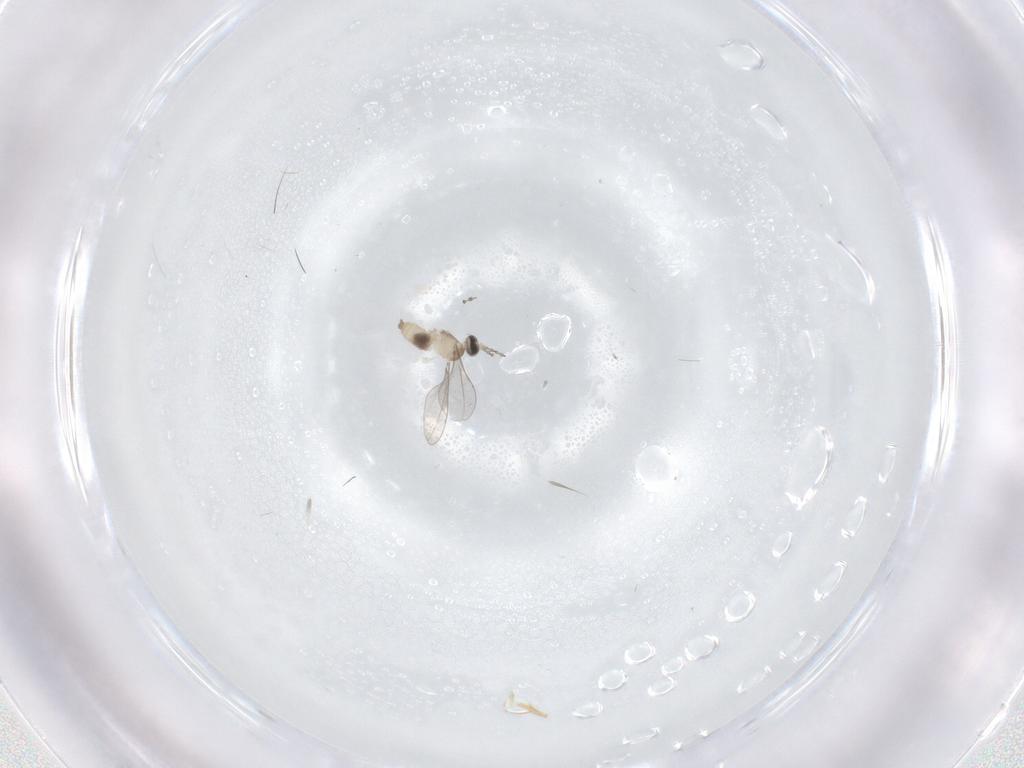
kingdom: Animalia
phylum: Arthropoda
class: Insecta
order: Diptera
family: Cecidomyiidae
